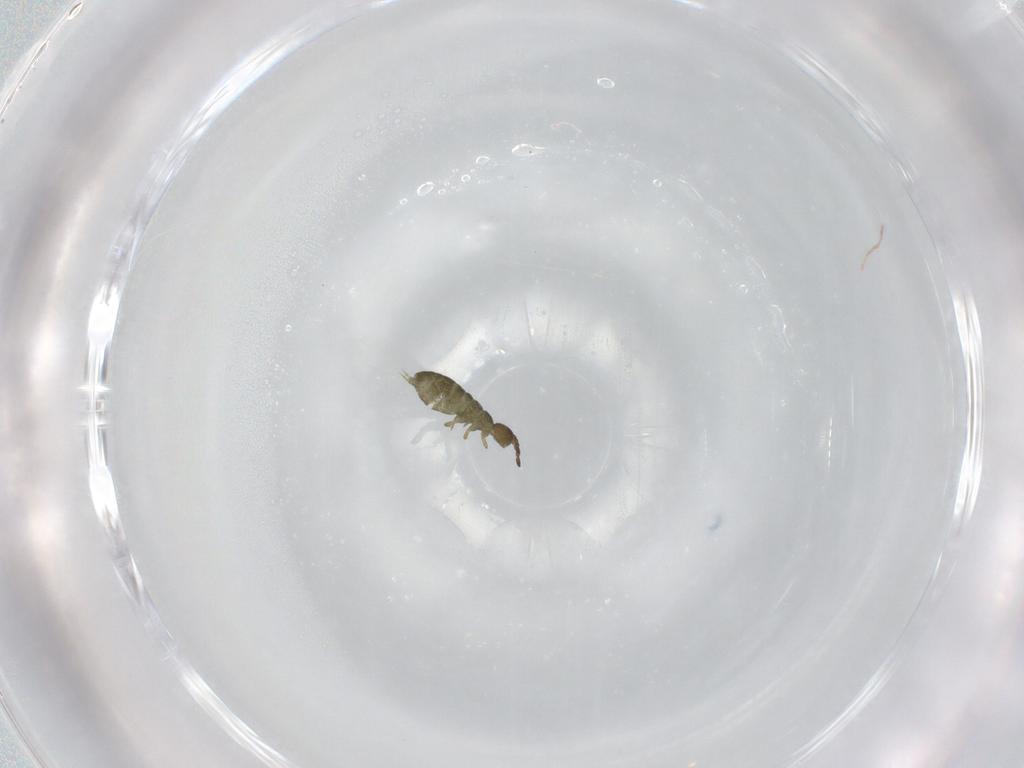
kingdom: Animalia
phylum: Arthropoda
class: Collembola
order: Entomobryomorpha
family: Isotomidae
